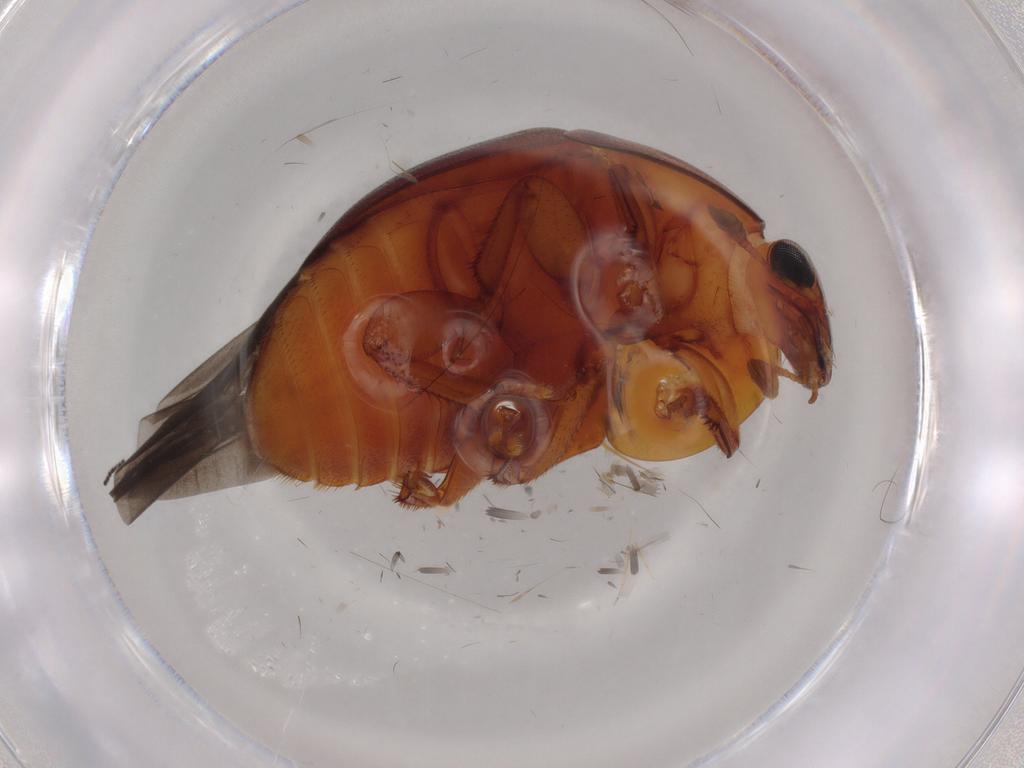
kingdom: Animalia
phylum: Arthropoda
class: Insecta
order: Coleoptera
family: Nitidulidae
